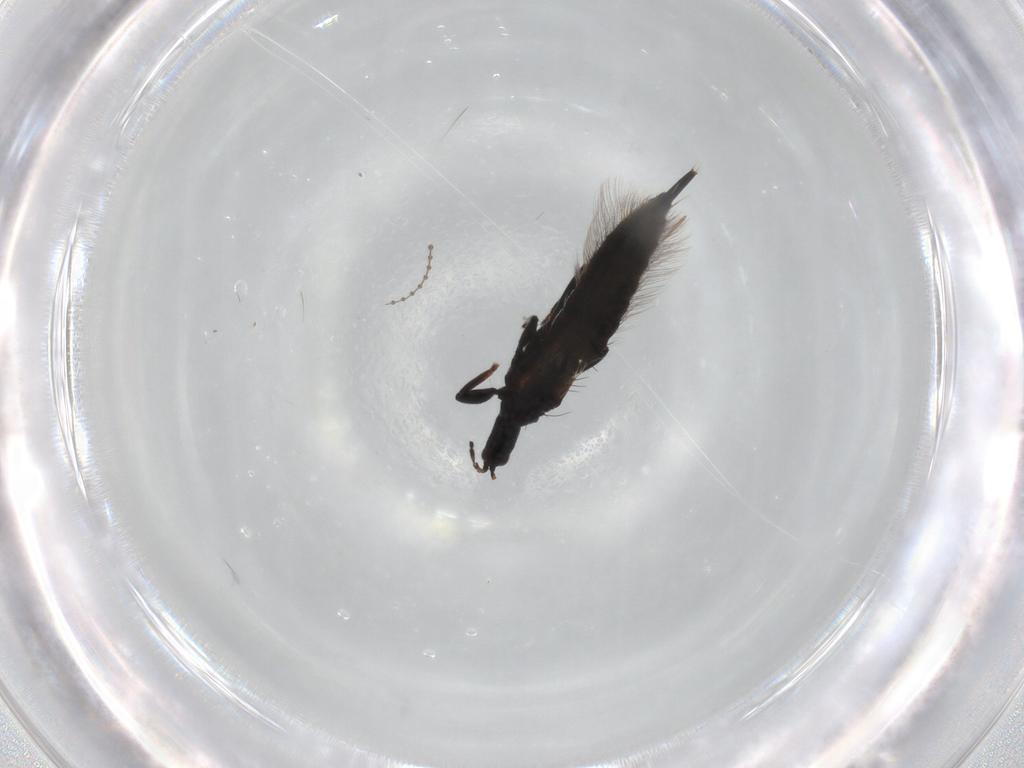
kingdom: Animalia
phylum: Arthropoda
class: Insecta
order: Thysanoptera
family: Phlaeothripidae
